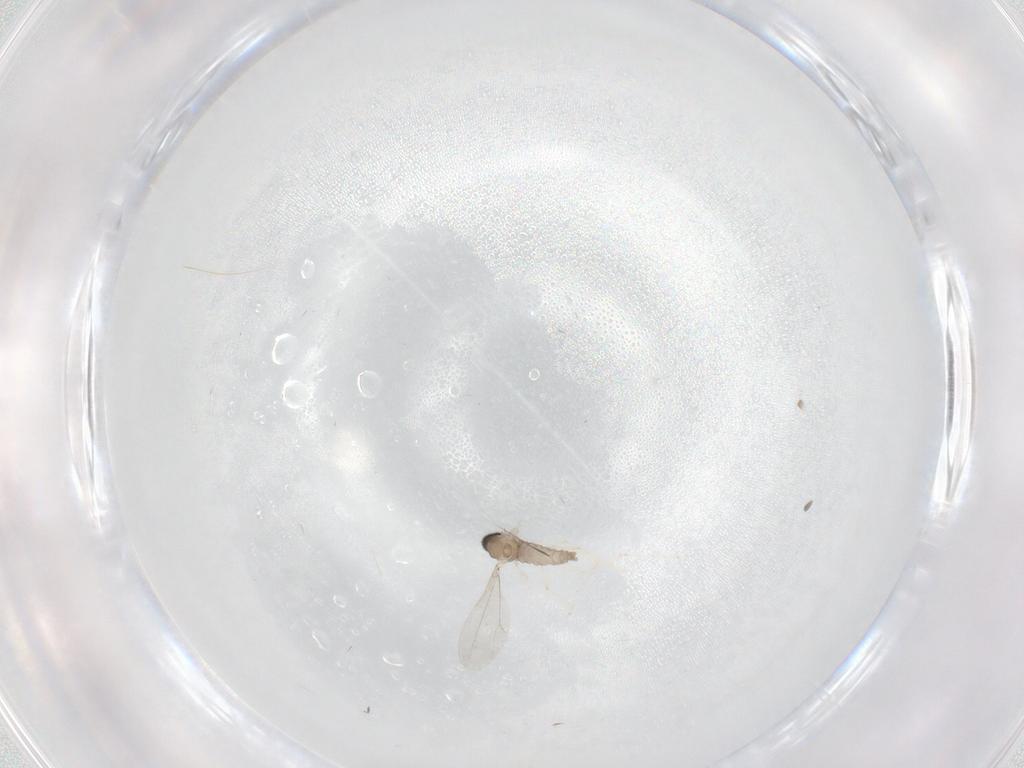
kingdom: Animalia
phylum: Arthropoda
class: Insecta
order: Diptera
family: Cecidomyiidae
